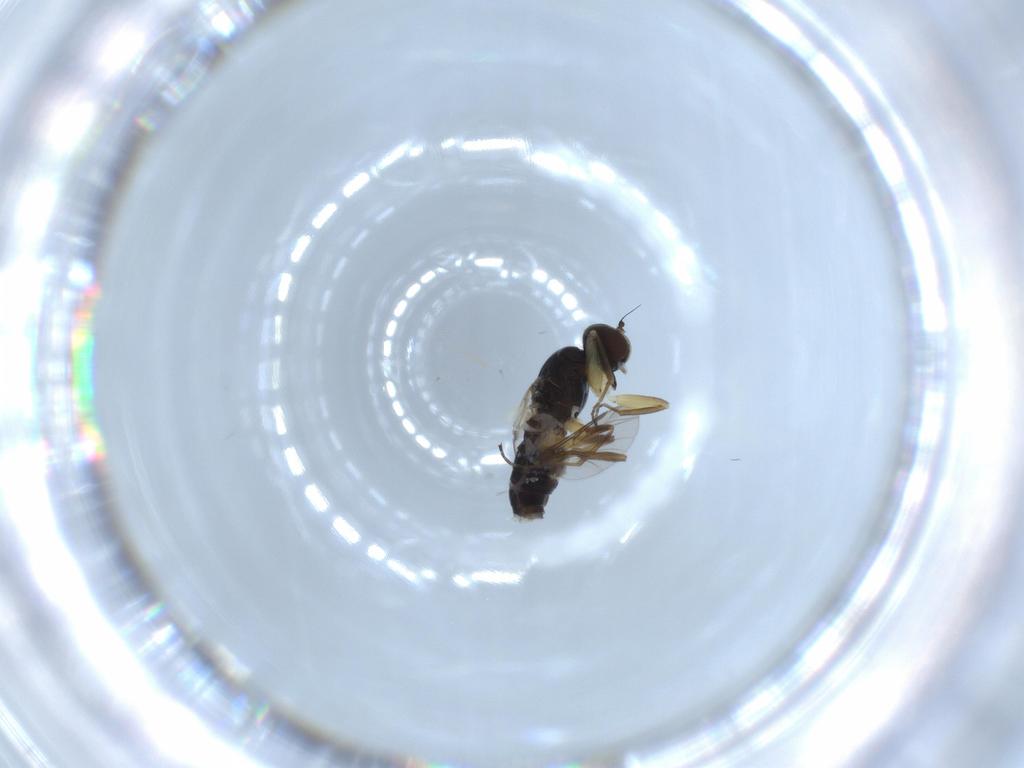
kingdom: Animalia
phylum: Arthropoda
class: Insecta
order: Diptera
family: Hybotidae
